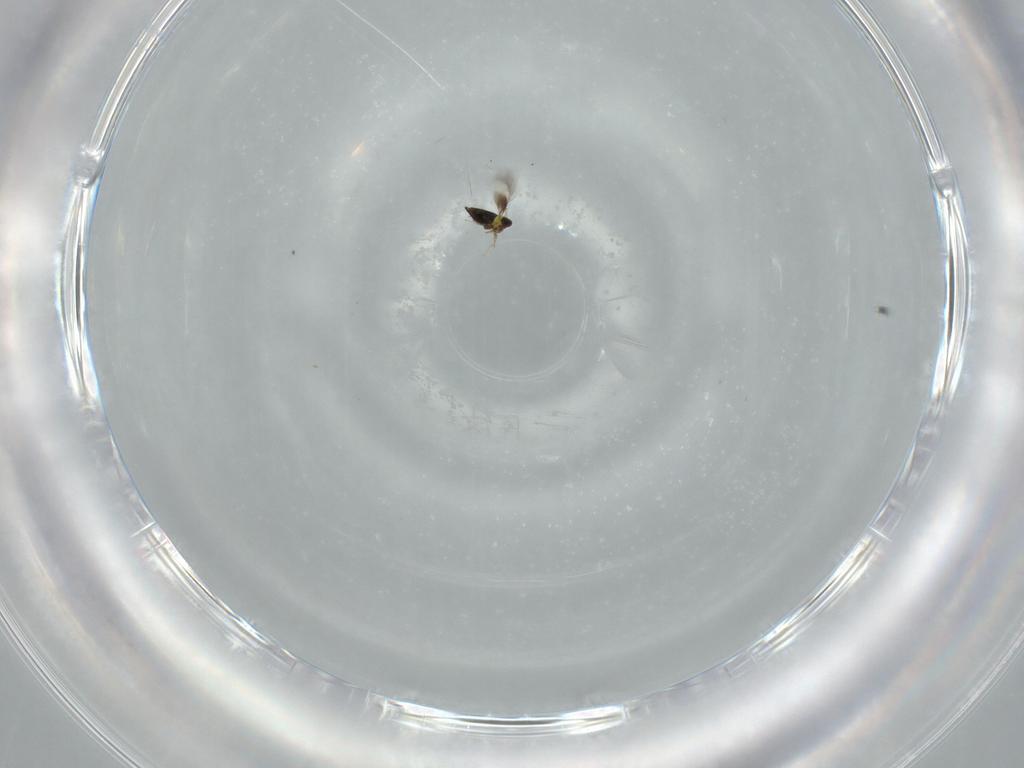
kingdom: Animalia
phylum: Arthropoda
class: Insecta
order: Hymenoptera
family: Signiphoridae
